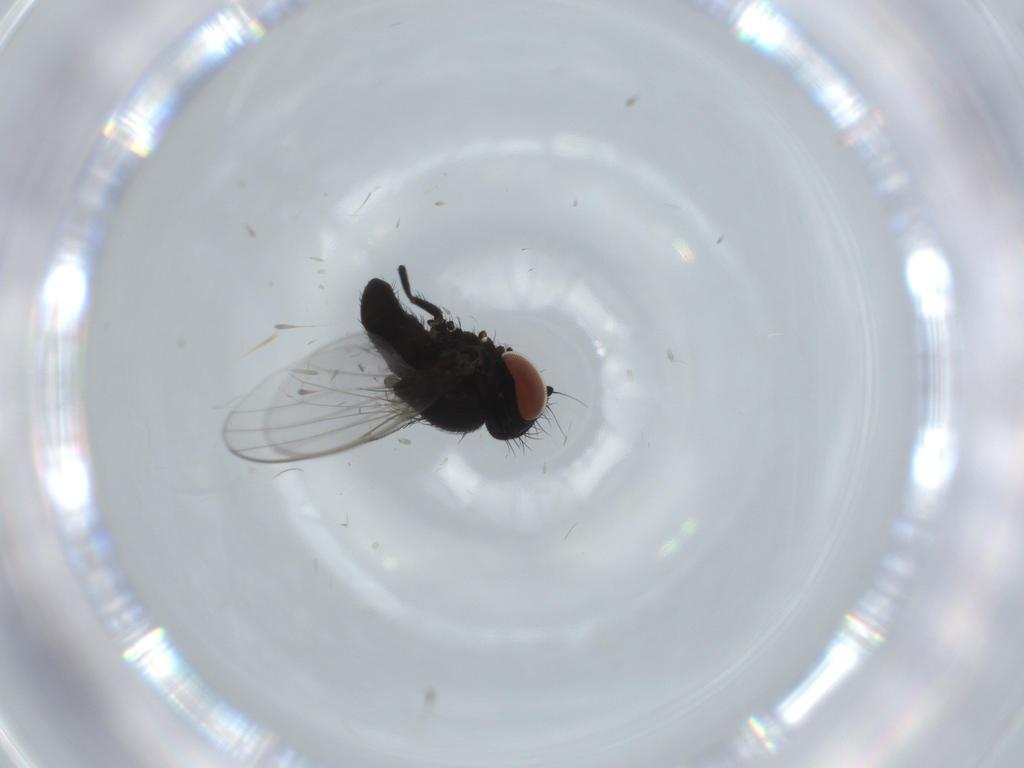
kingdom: Animalia
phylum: Arthropoda
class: Insecta
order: Diptera
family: Milichiidae
